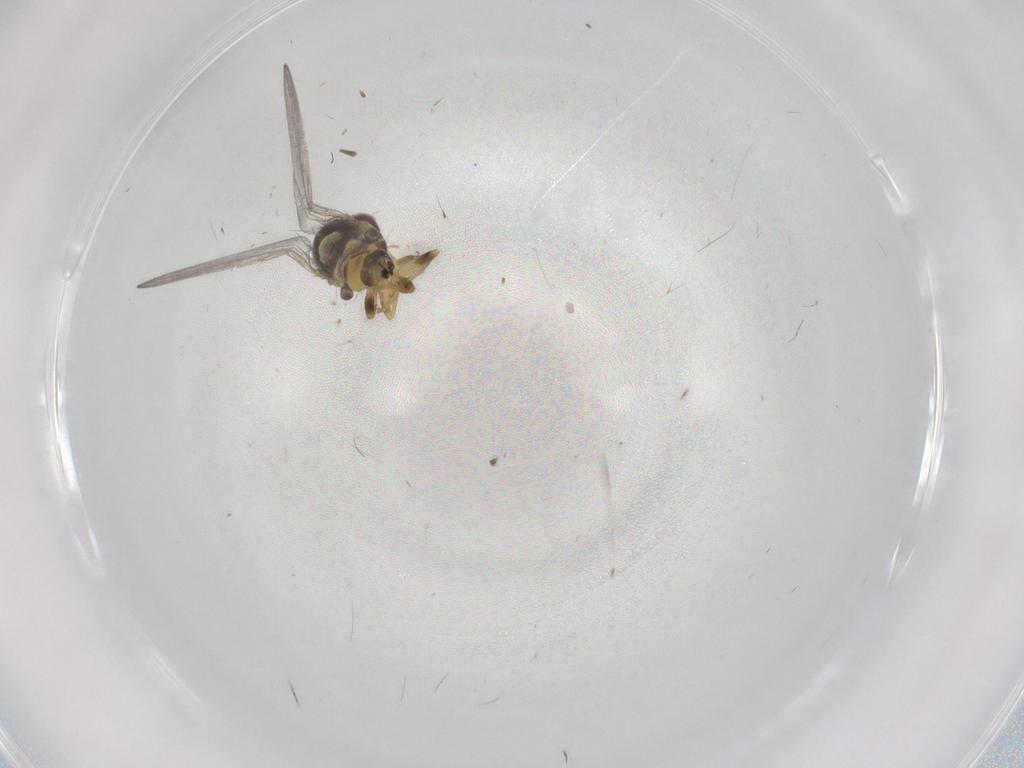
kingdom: Animalia
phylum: Arthropoda
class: Insecta
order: Diptera
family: Asteiidae
